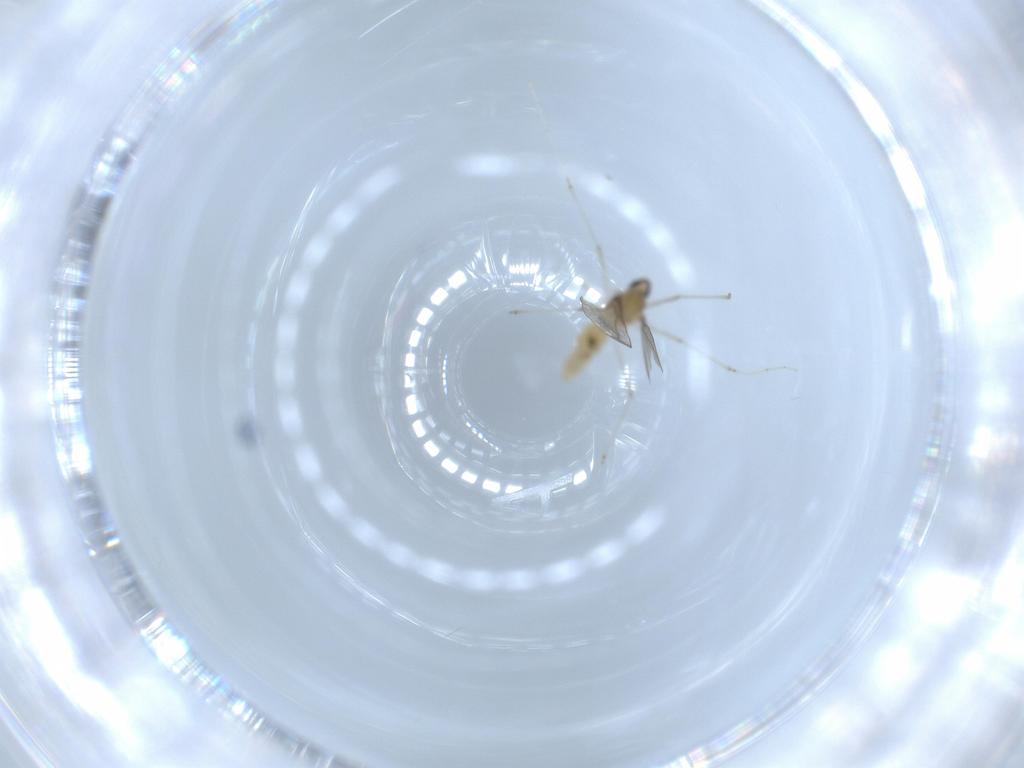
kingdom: Animalia
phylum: Arthropoda
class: Insecta
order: Diptera
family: Cecidomyiidae
